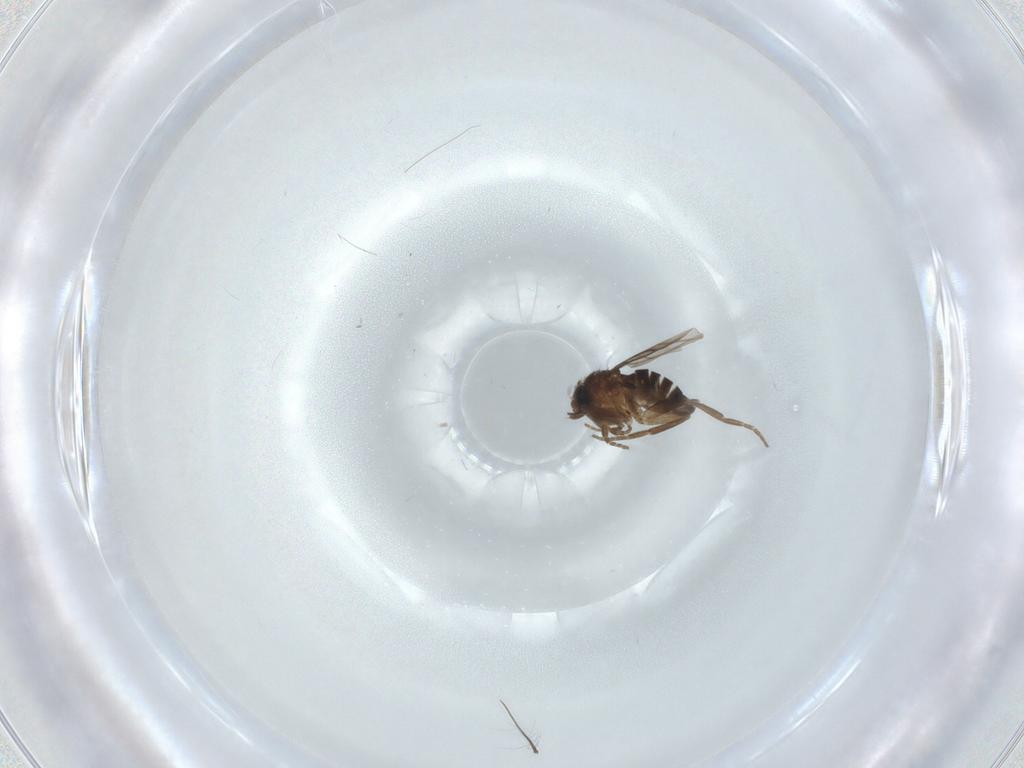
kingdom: Animalia
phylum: Arthropoda
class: Insecta
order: Diptera
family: Phoridae
